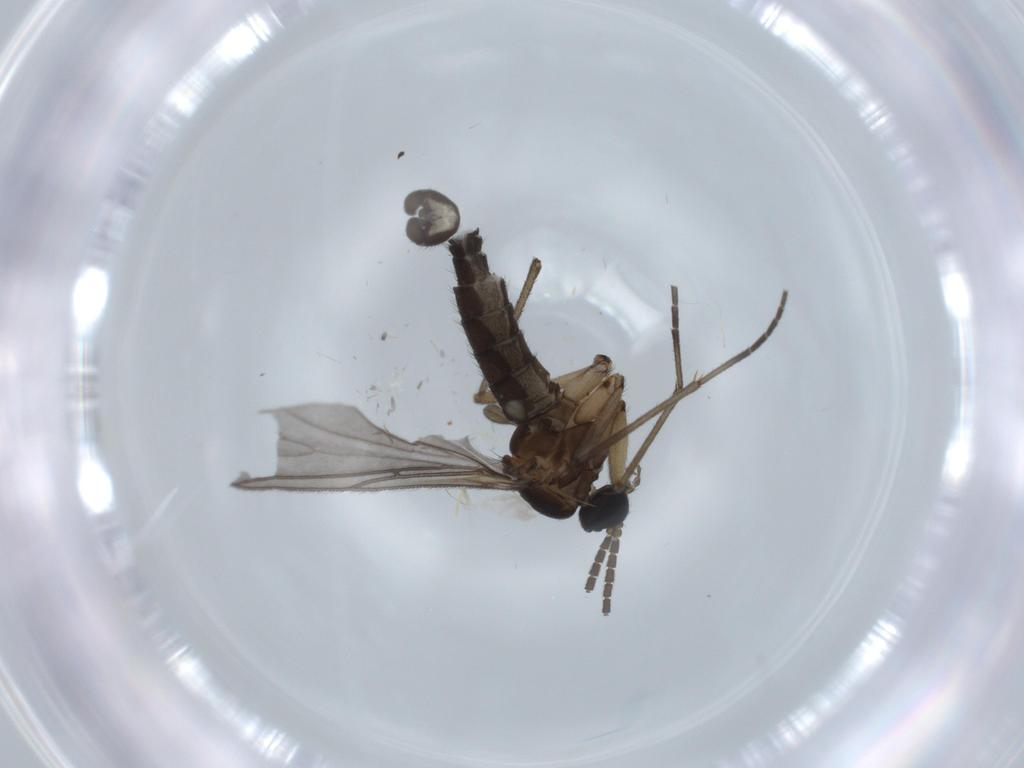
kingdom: Animalia
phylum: Arthropoda
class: Insecta
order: Diptera
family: Sciaridae
